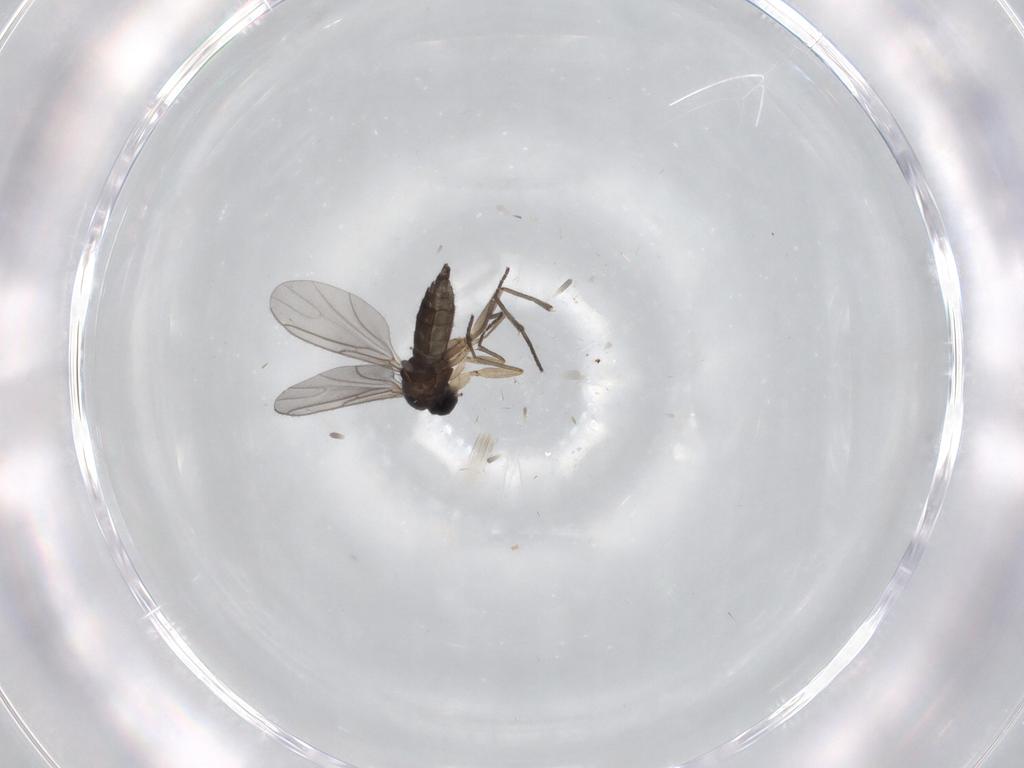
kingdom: Animalia
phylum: Arthropoda
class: Insecta
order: Diptera
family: Sciaridae
